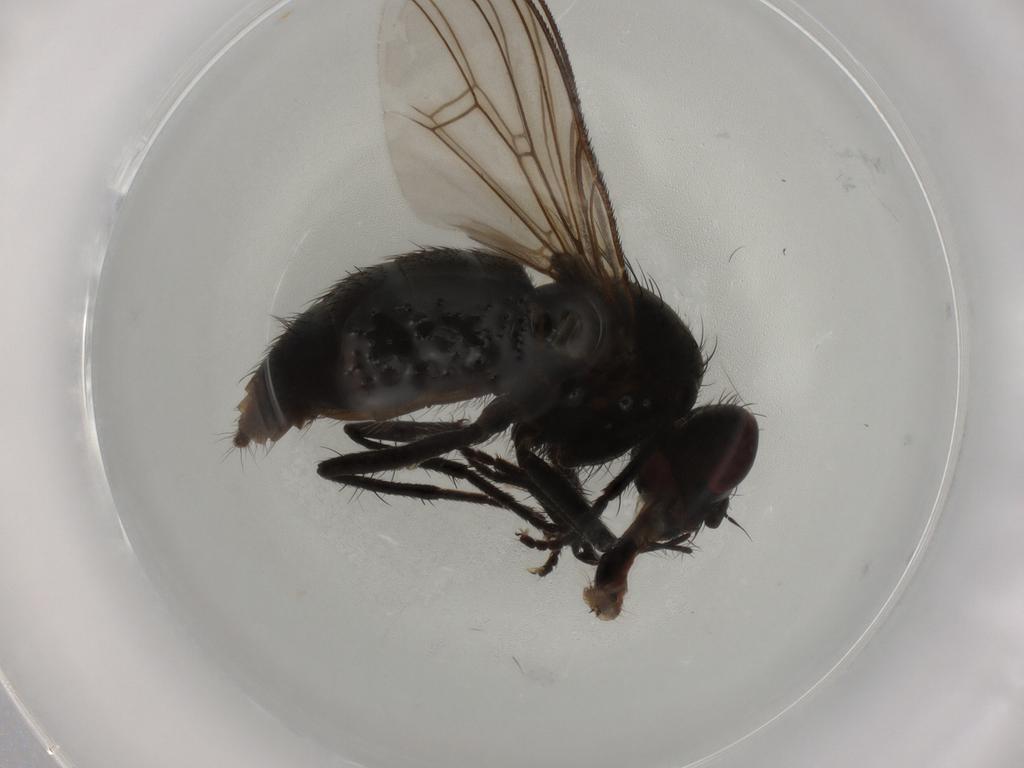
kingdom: Animalia
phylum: Arthropoda
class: Insecta
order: Diptera
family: Muscidae
